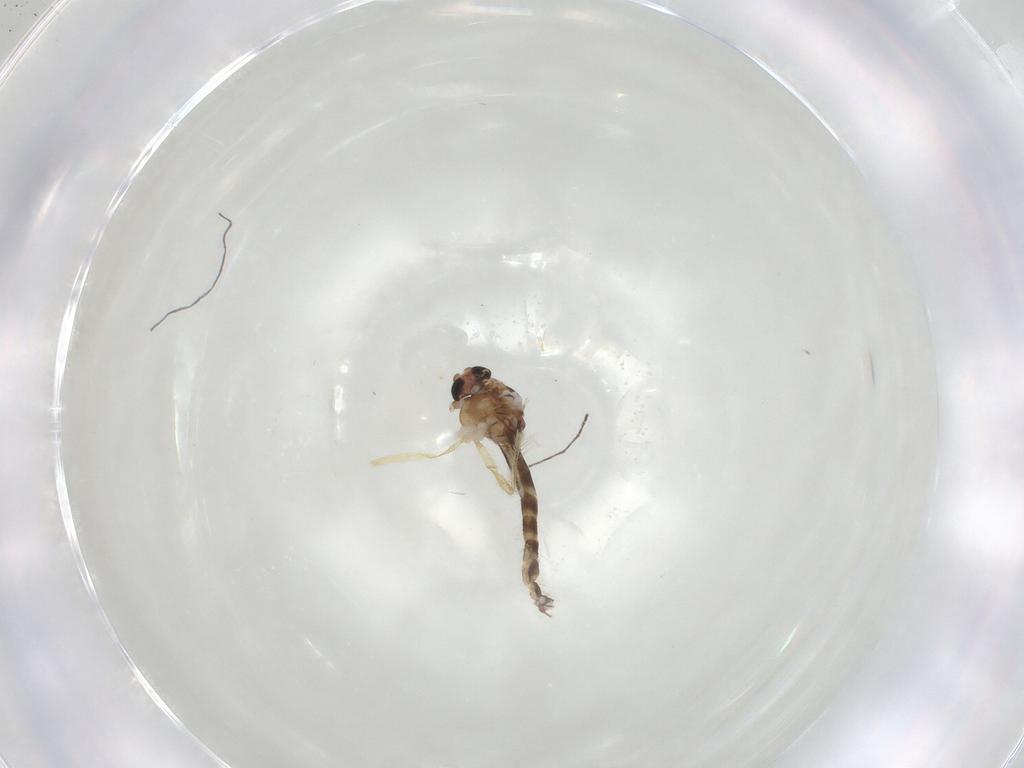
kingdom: Animalia
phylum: Arthropoda
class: Insecta
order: Diptera
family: Chironomidae
